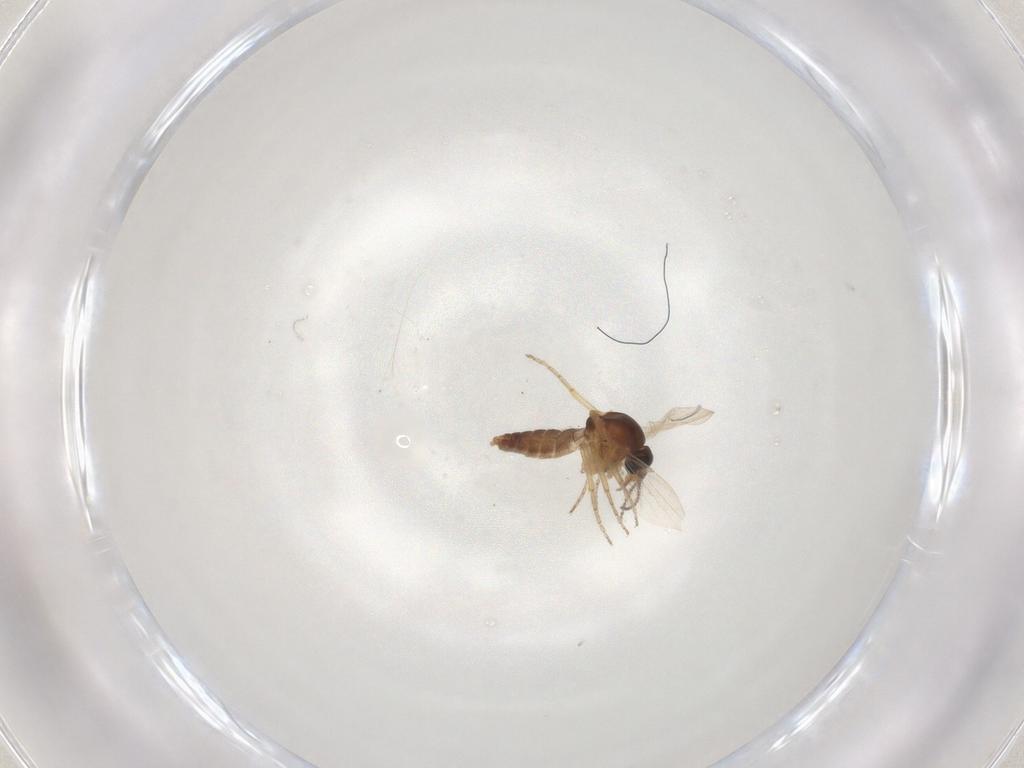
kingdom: Animalia
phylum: Arthropoda
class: Insecta
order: Diptera
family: Ceratopogonidae
